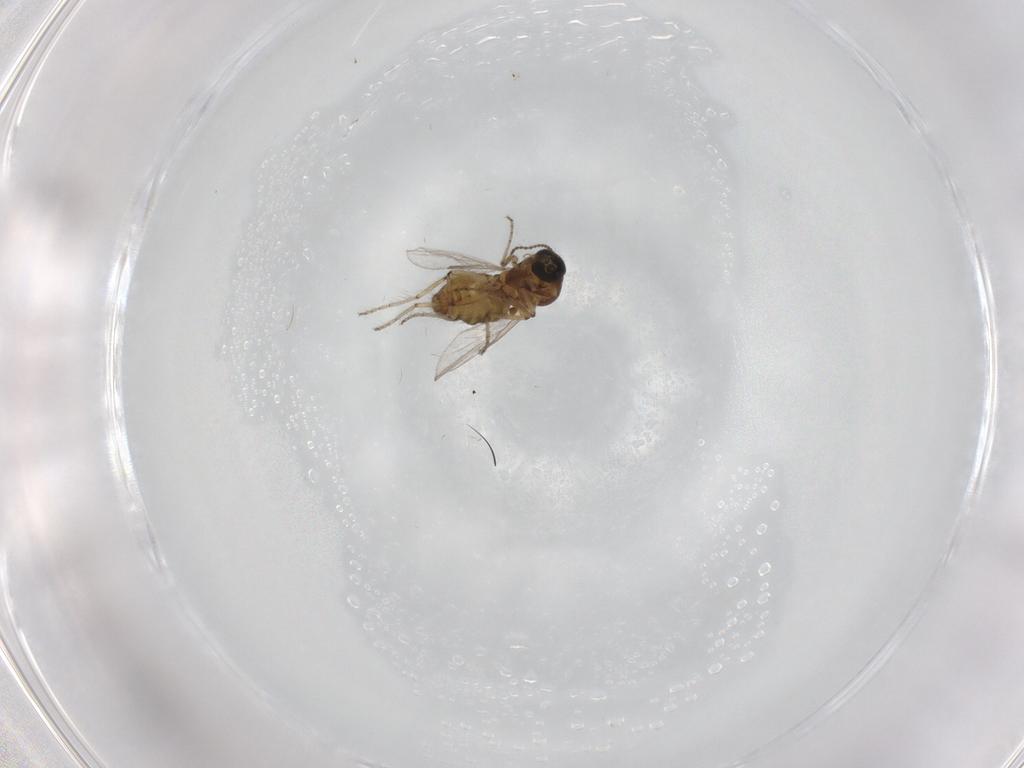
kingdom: Animalia
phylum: Arthropoda
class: Insecta
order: Diptera
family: Ceratopogonidae
